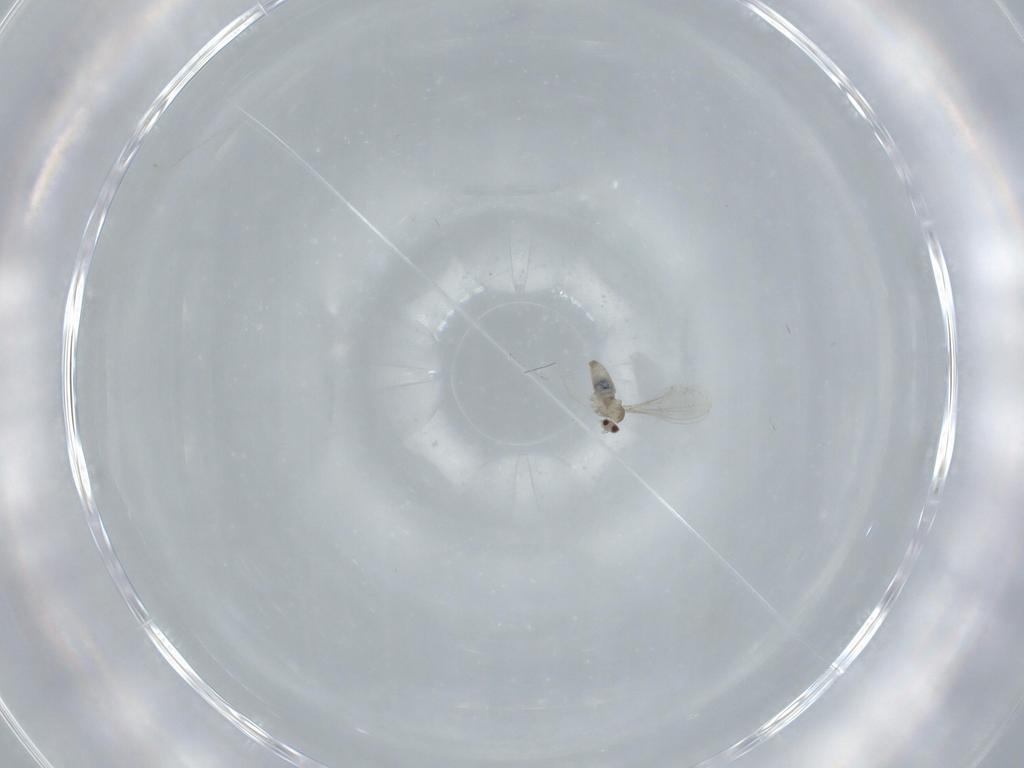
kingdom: Animalia
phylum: Arthropoda
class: Insecta
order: Diptera
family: Cecidomyiidae
